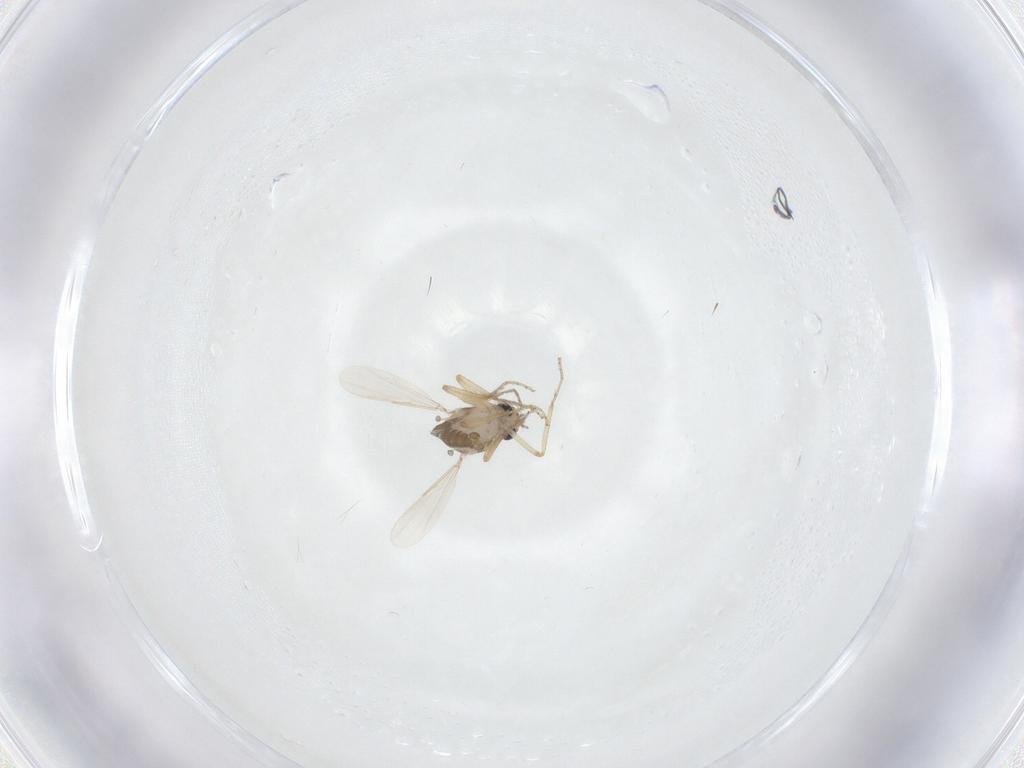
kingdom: Animalia
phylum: Arthropoda
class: Insecta
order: Diptera
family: Ceratopogonidae
